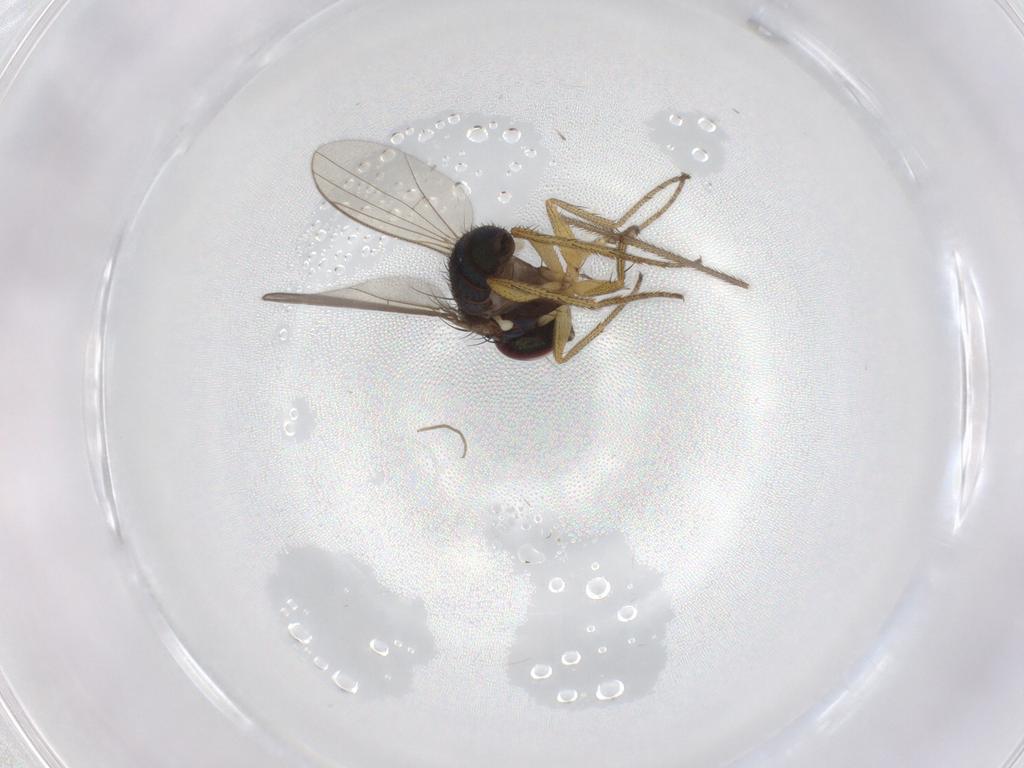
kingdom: Animalia
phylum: Arthropoda
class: Insecta
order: Diptera
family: Chironomidae
